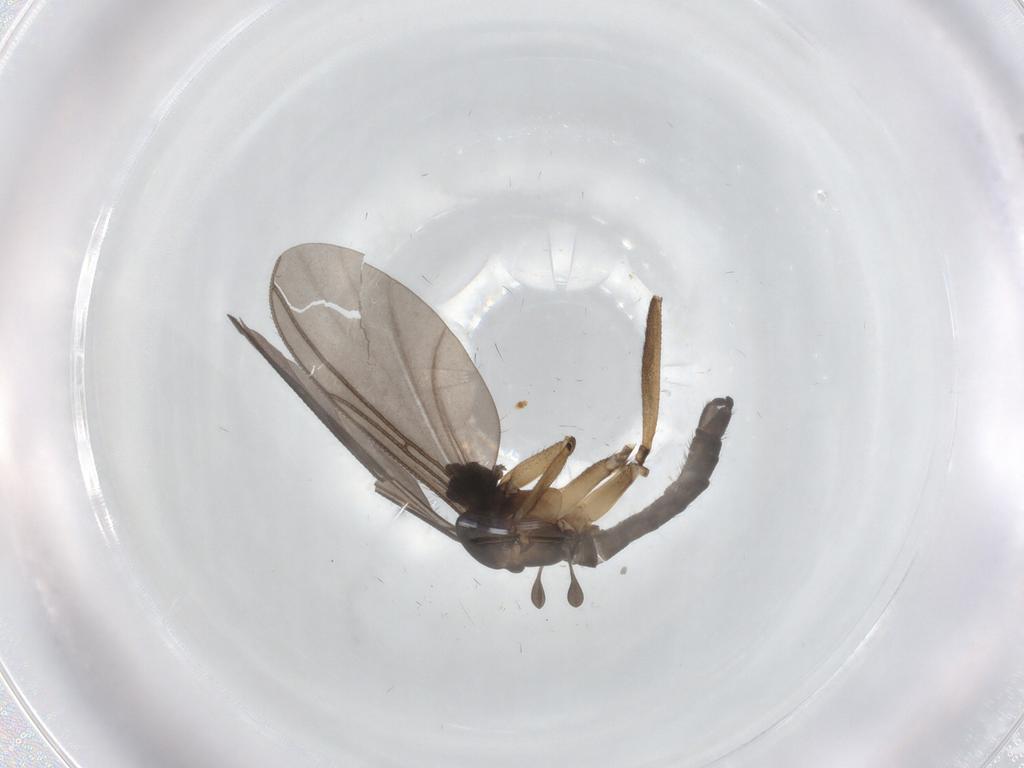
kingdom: Animalia
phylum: Arthropoda
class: Insecta
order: Diptera
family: Sciaridae
